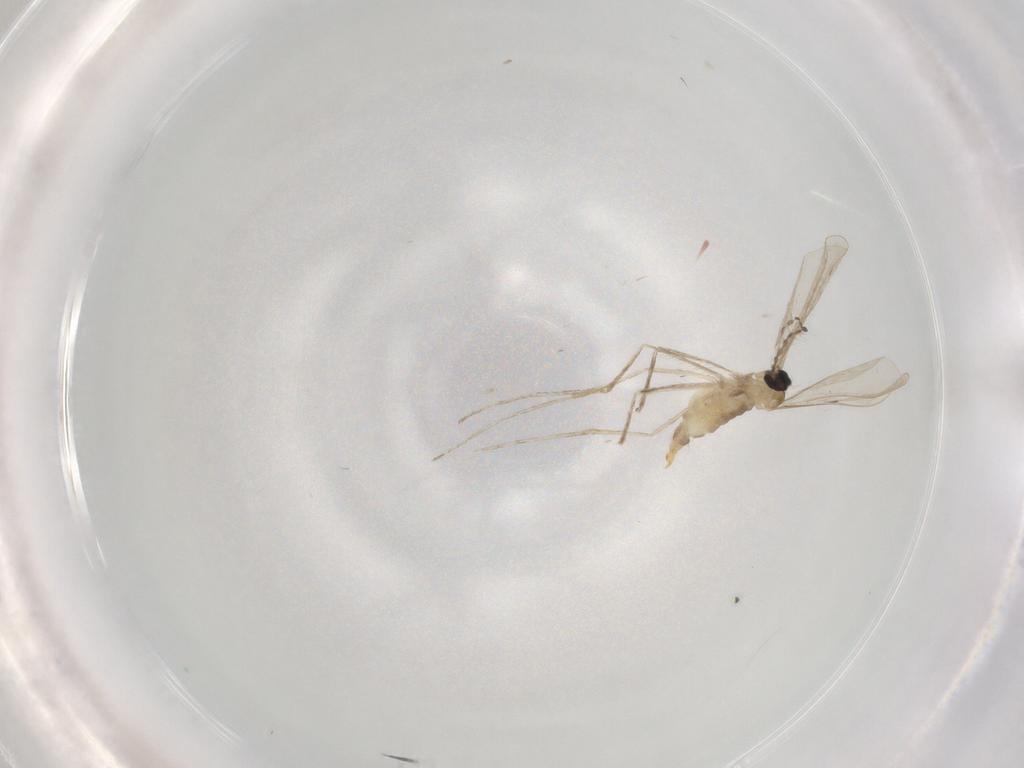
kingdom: Animalia
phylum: Arthropoda
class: Insecta
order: Diptera
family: Cecidomyiidae
